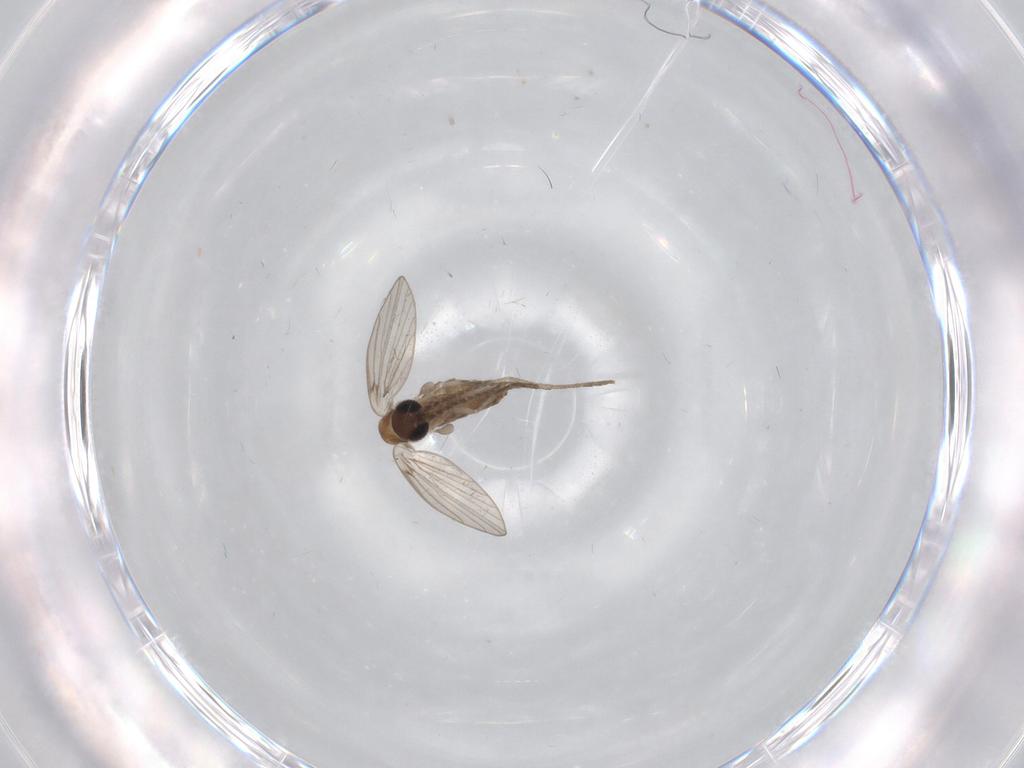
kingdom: Animalia
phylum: Arthropoda
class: Insecta
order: Diptera
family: Psychodidae
